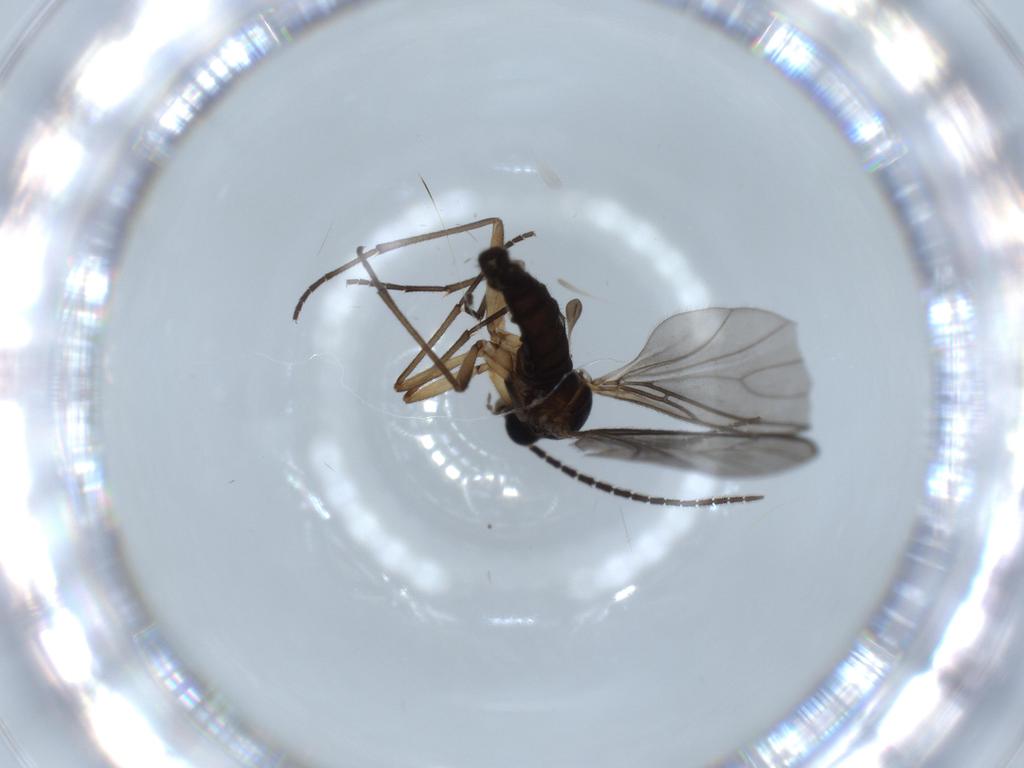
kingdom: Animalia
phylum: Arthropoda
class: Insecta
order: Diptera
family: Sciaridae
